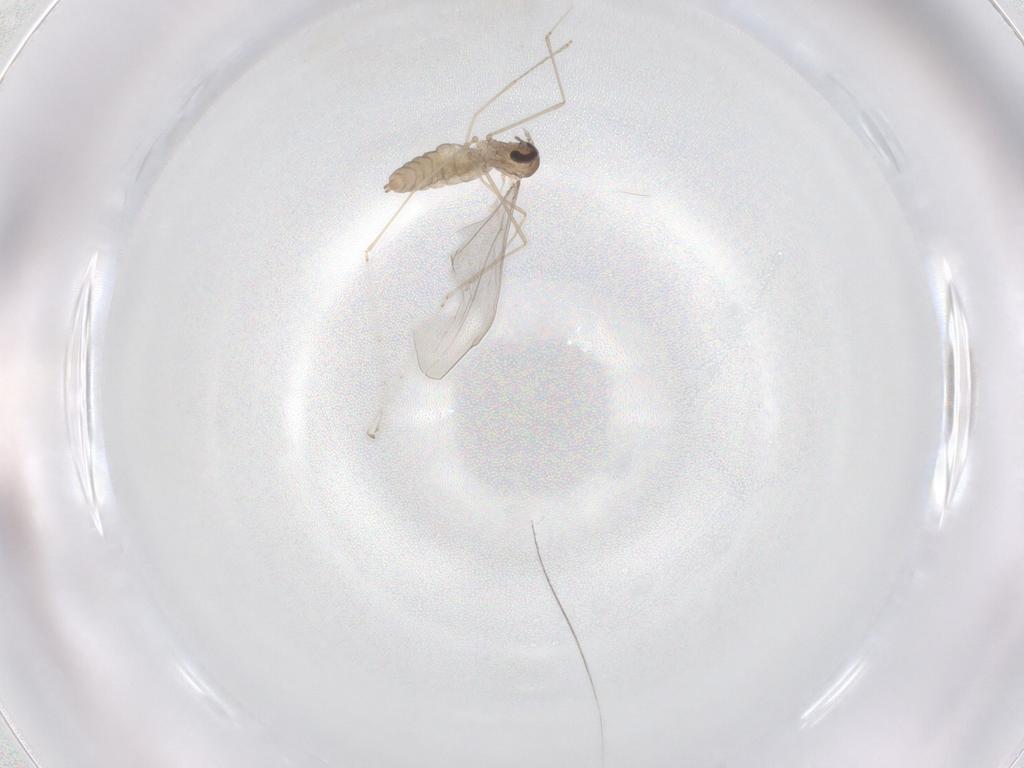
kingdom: Animalia
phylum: Arthropoda
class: Insecta
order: Diptera
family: Cecidomyiidae
